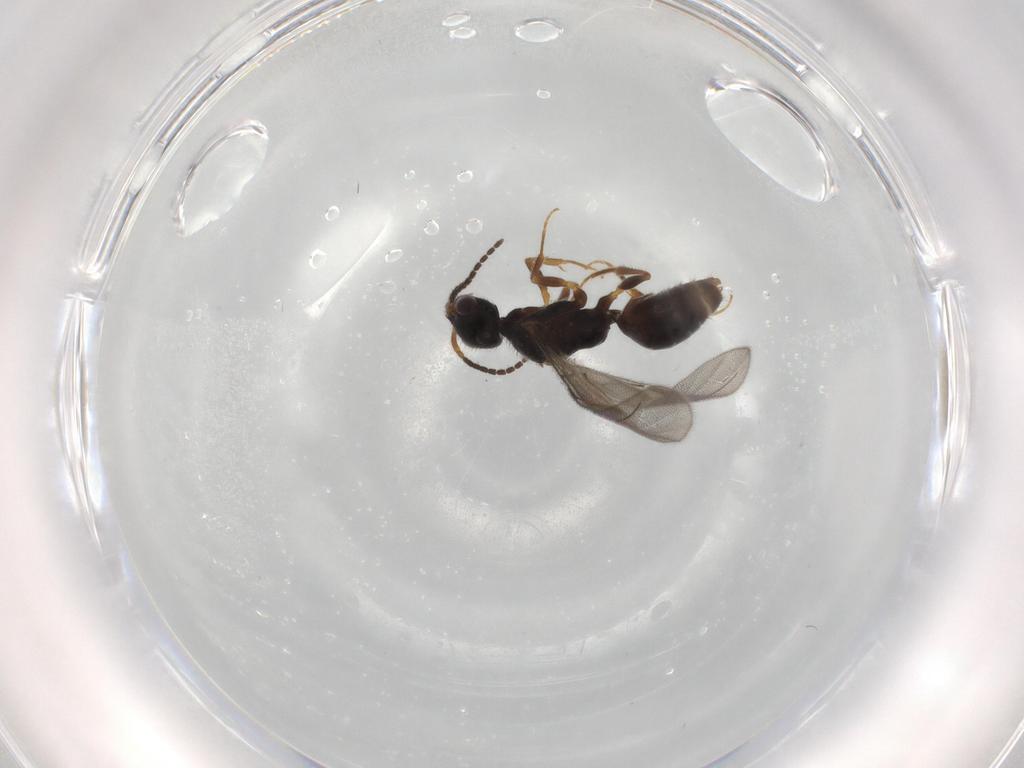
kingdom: Animalia
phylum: Arthropoda
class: Insecta
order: Hymenoptera
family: Bethylidae
